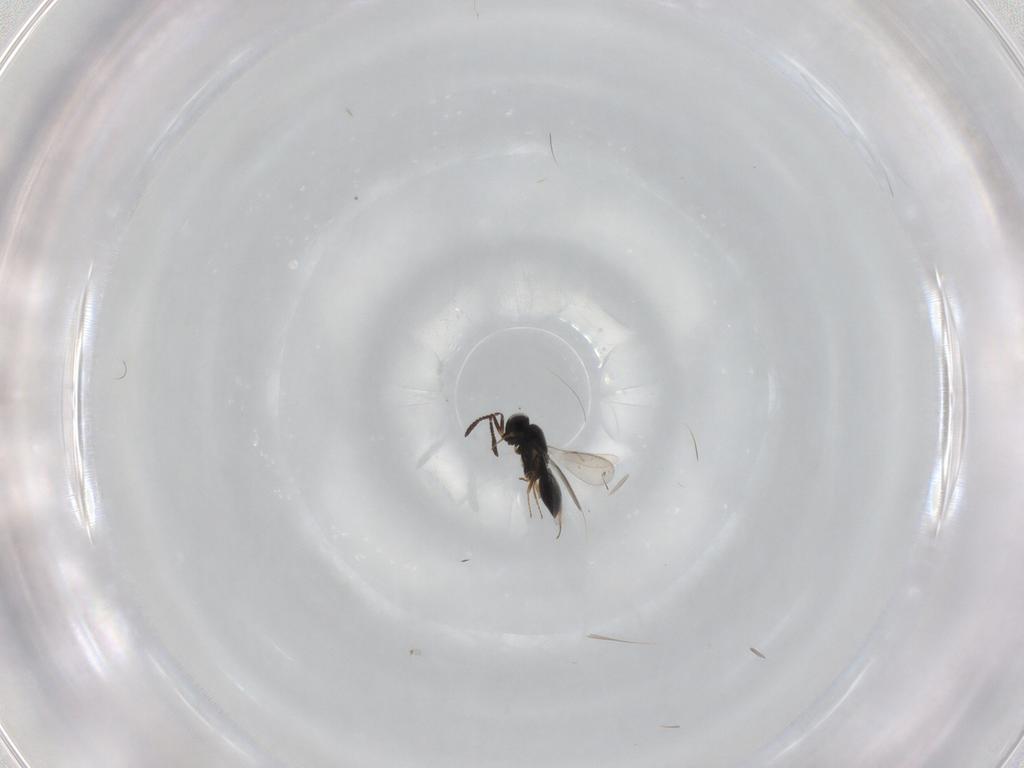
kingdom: Animalia
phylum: Arthropoda
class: Insecta
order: Hymenoptera
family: Scelionidae
